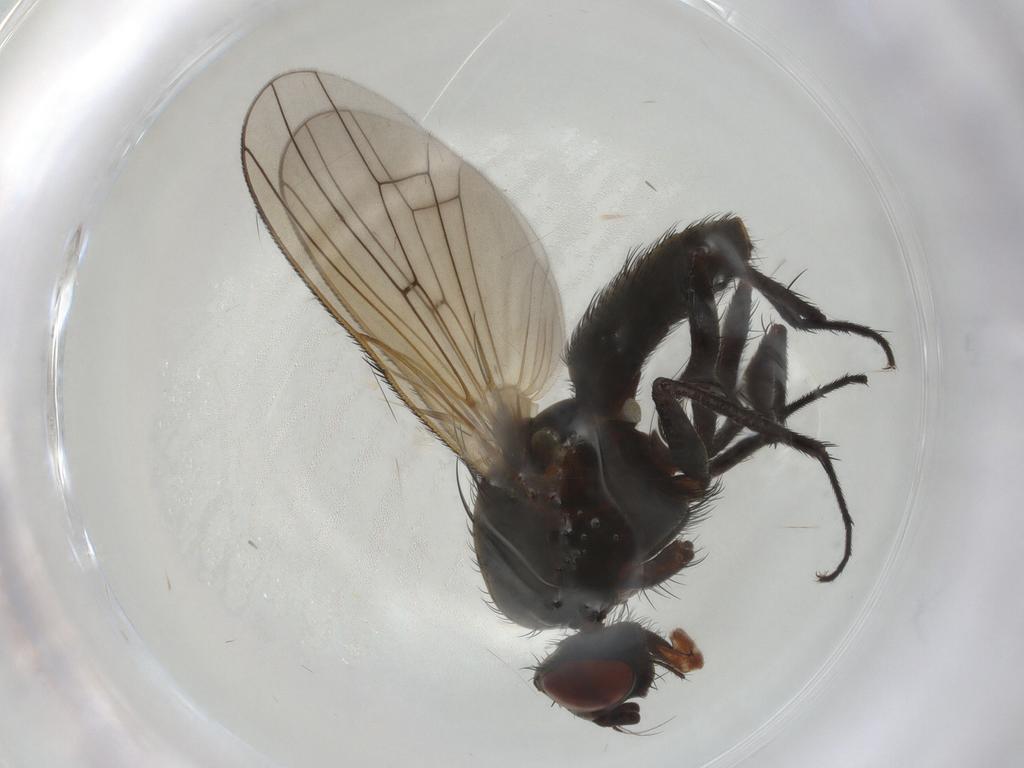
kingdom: Animalia
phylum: Arthropoda
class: Insecta
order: Diptera
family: Anthomyiidae
